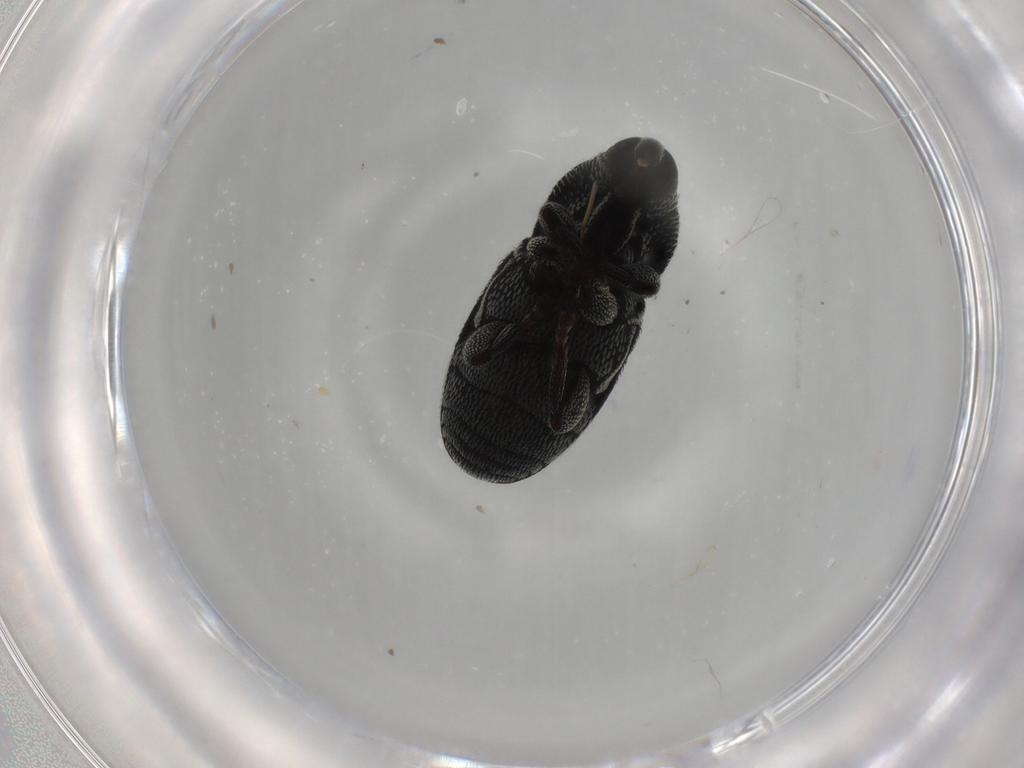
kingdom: Animalia
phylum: Arthropoda
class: Insecta
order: Coleoptera
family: Curculionidae
